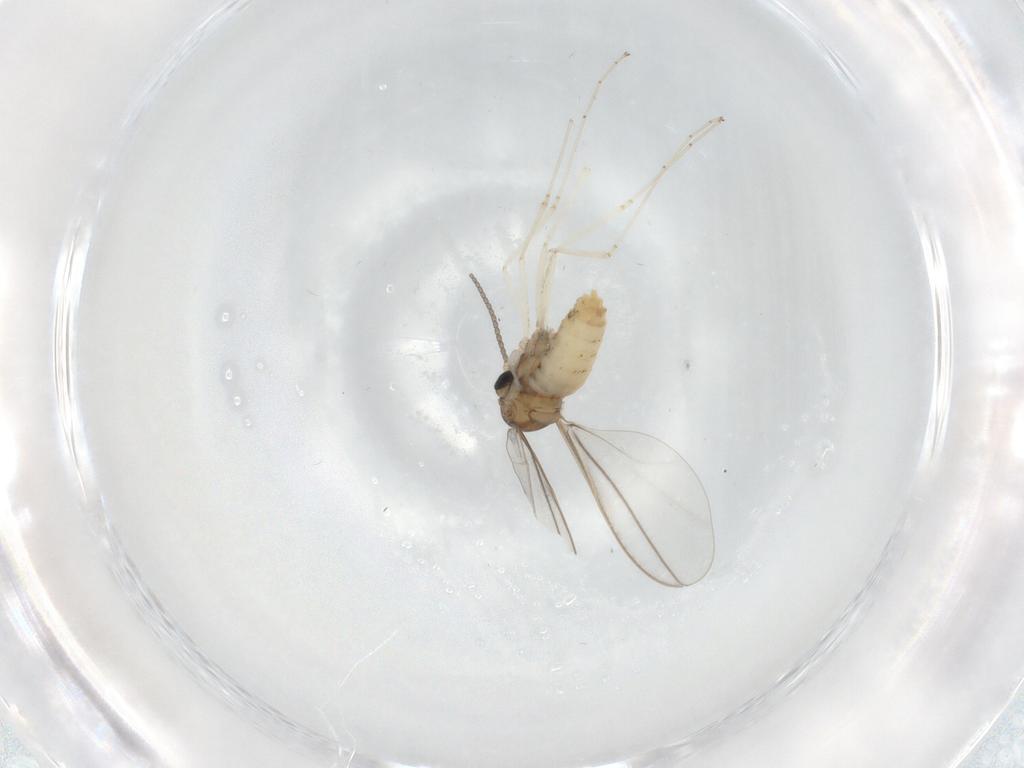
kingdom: Animalia
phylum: Arthropoda
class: Insecta
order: Diptera
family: Cecidomyiidae
